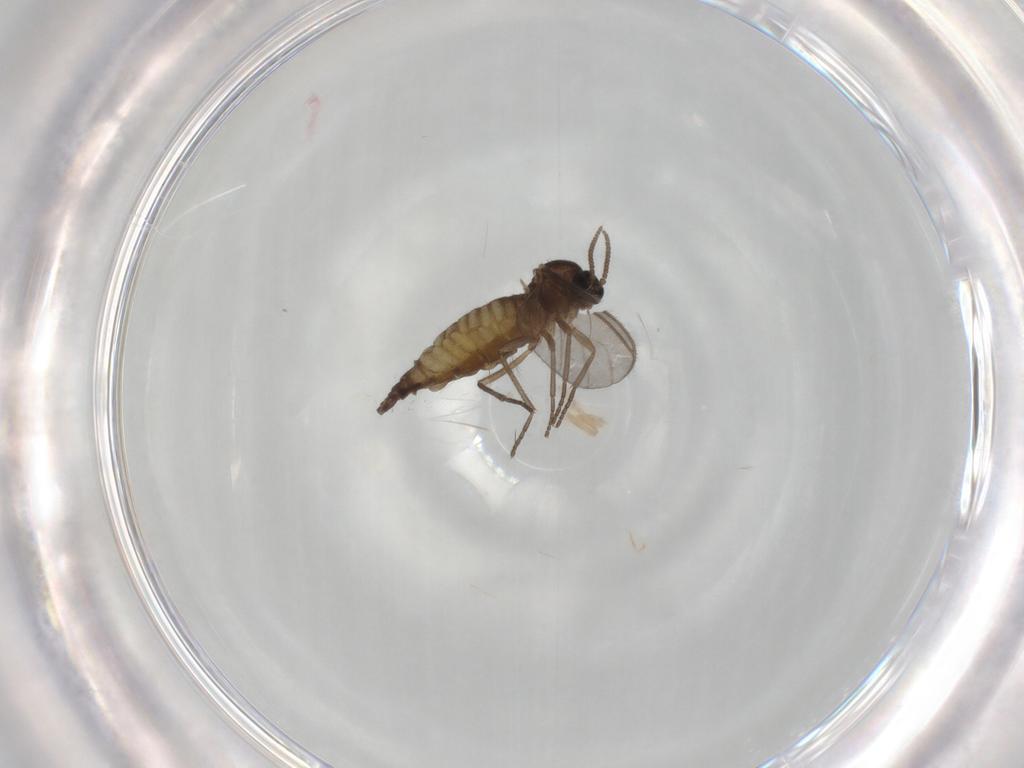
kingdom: Animalia
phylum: Arthropoda
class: Insecta
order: Diptera
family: Sciaridae
